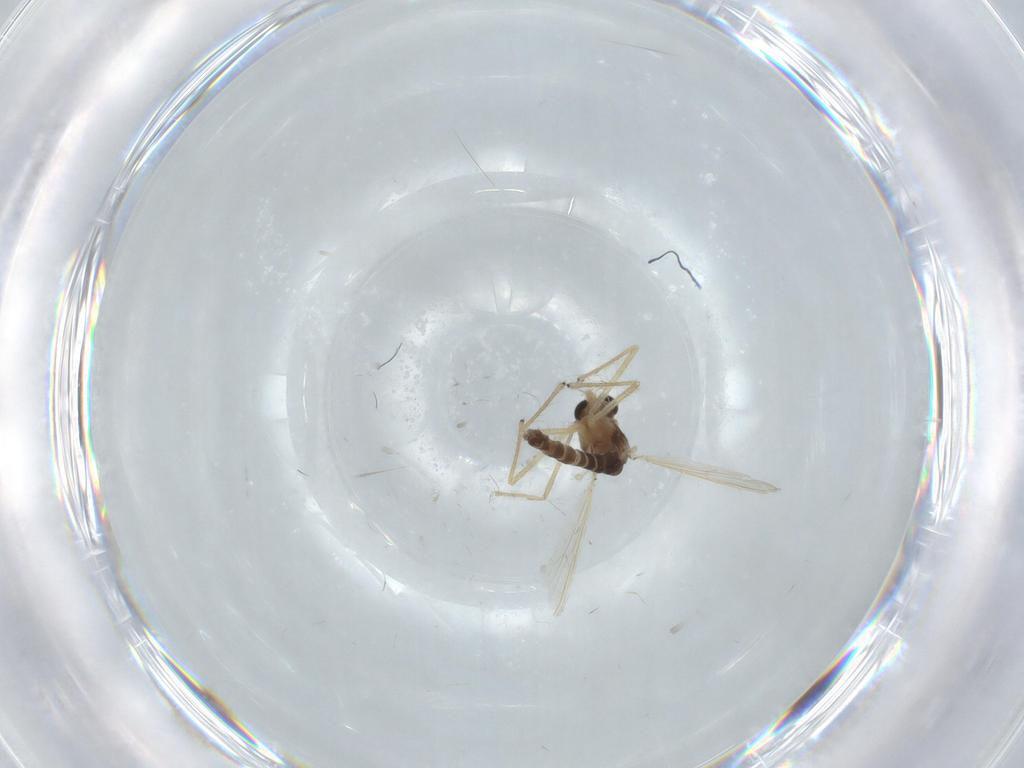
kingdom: Animalia
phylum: Arthropoda
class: Insecta
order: Diptera
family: Chironomidae
